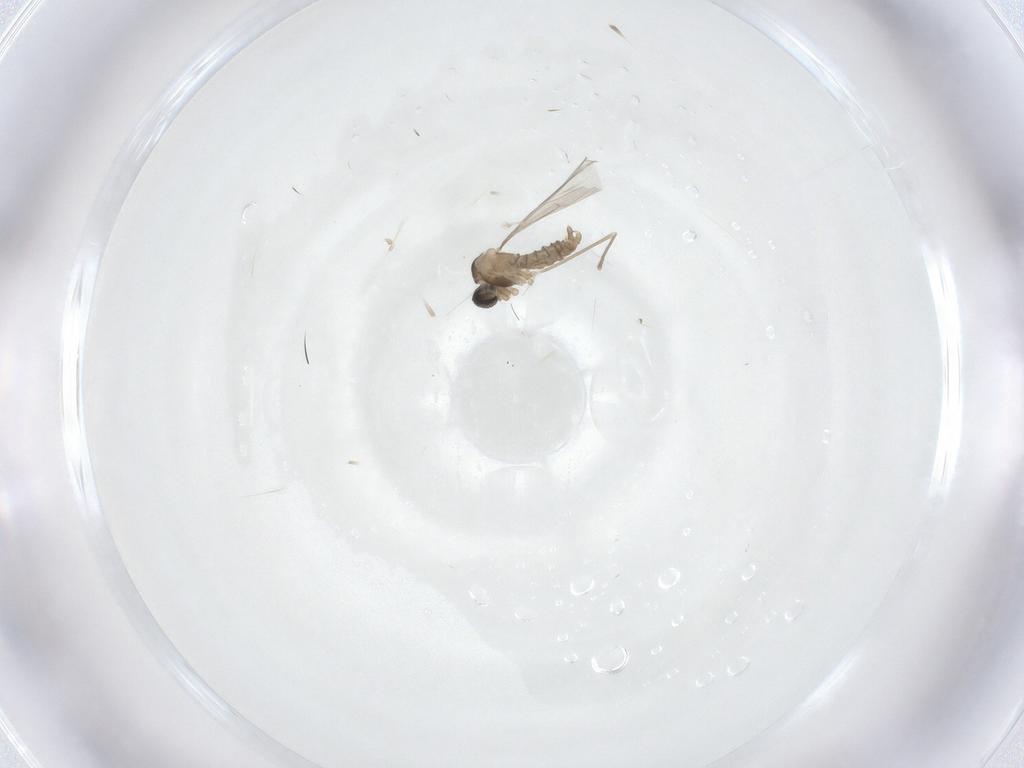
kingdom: Animalia
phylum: Arthropoda
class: Insecta
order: Diptera
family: Cecidomyiidae
